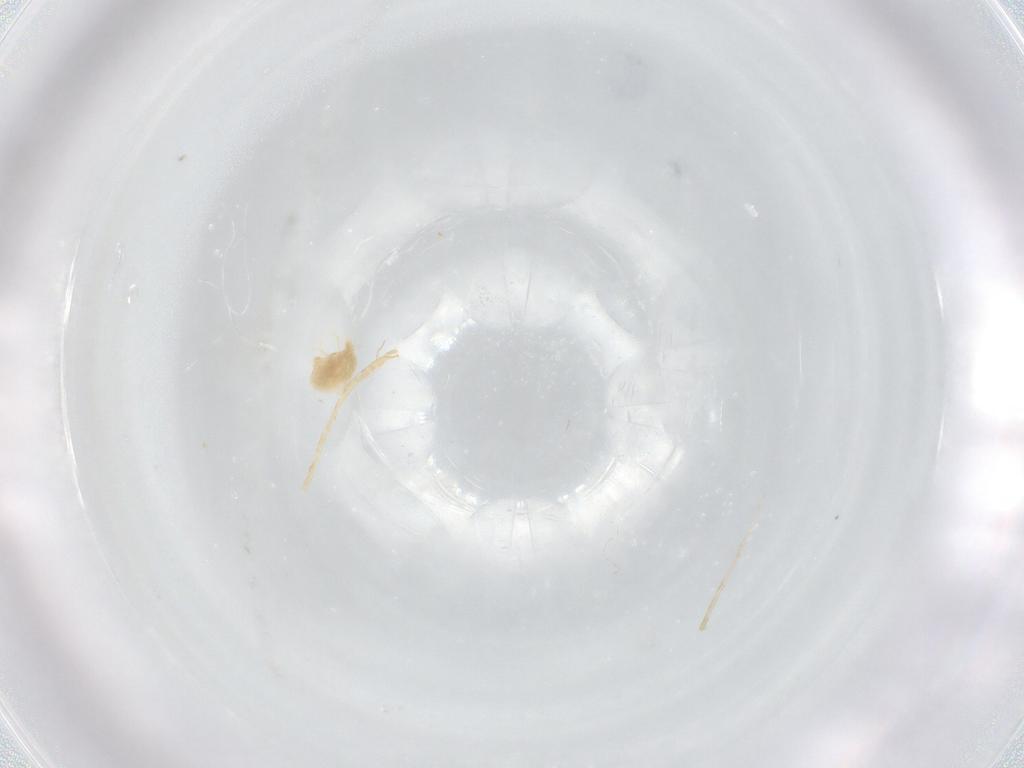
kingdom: Animalia
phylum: Arthropoda
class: Arachnida
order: Trombidiformes
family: Eupodidae
